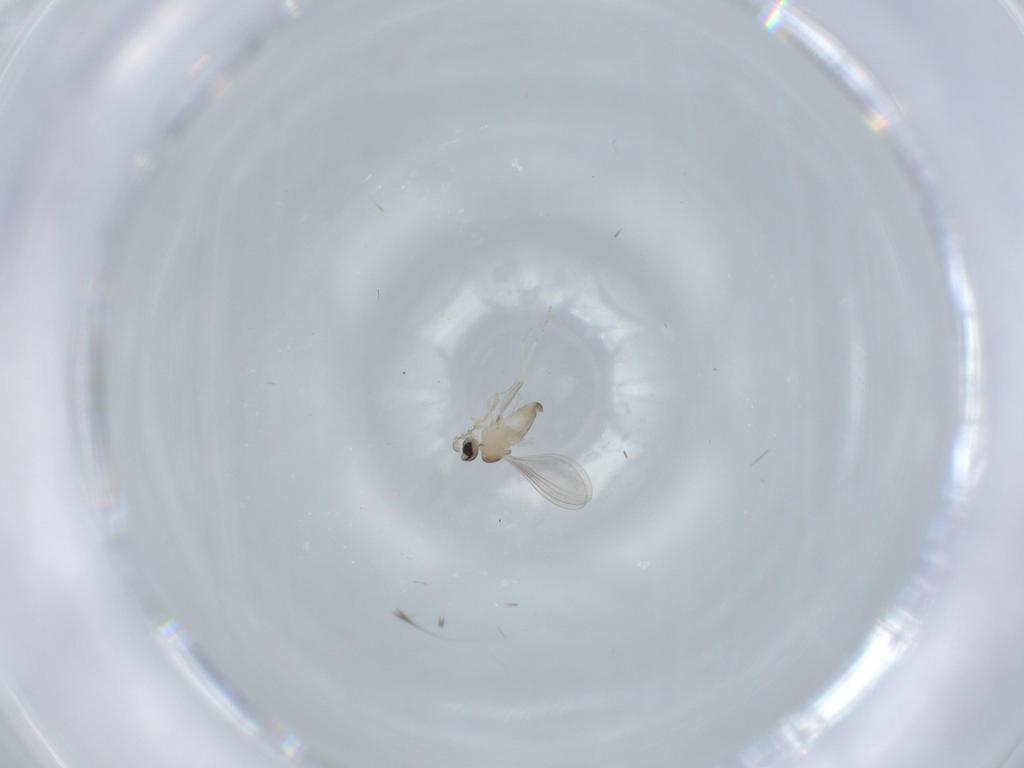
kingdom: Animalia
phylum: Arthropoda
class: Insecta
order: Diptera
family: Cecidomyiidae
